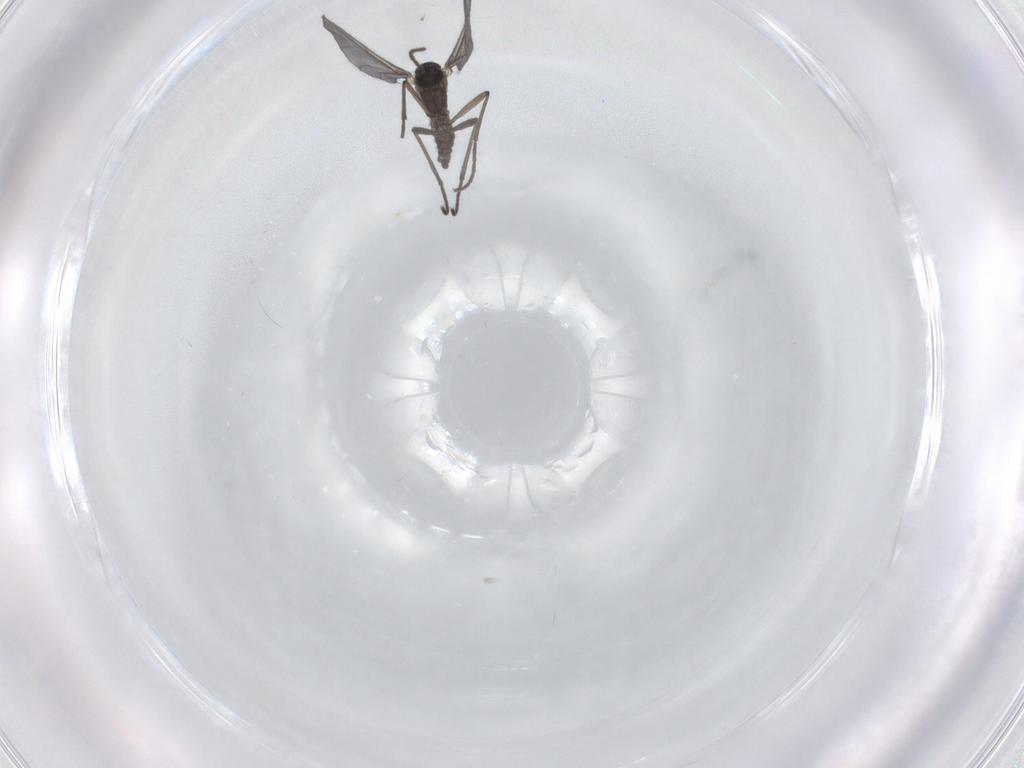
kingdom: Animalia
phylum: Arthropoda
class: Insecta
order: Diptera
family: Sciaridae
